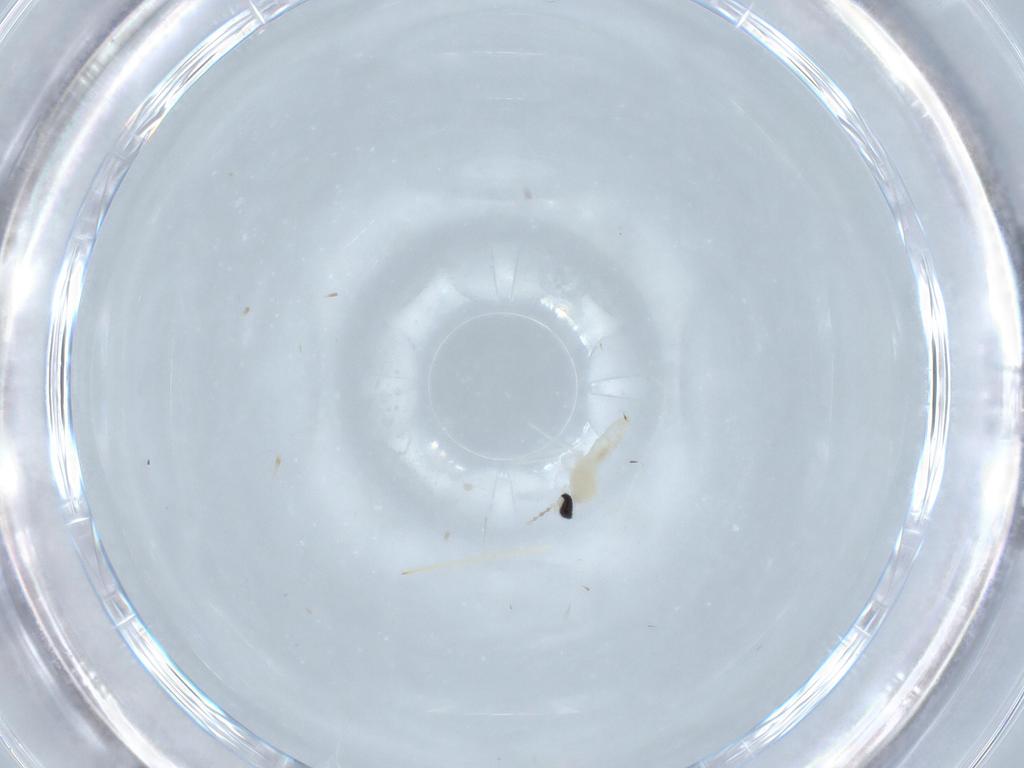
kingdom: Animalia
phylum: Arthropoda
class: Insecta
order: Diptera
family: Cecidomyiidae
